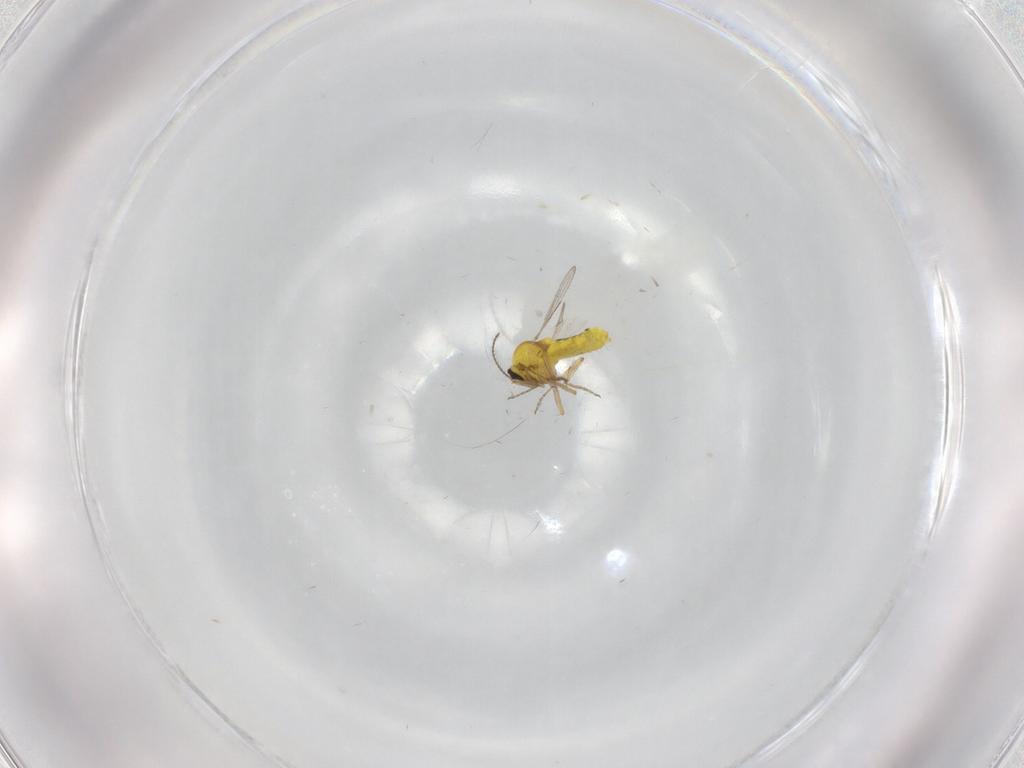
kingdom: Animalia
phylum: Arthropoda
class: Insecta
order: Diptera
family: Ceratopogonidae
